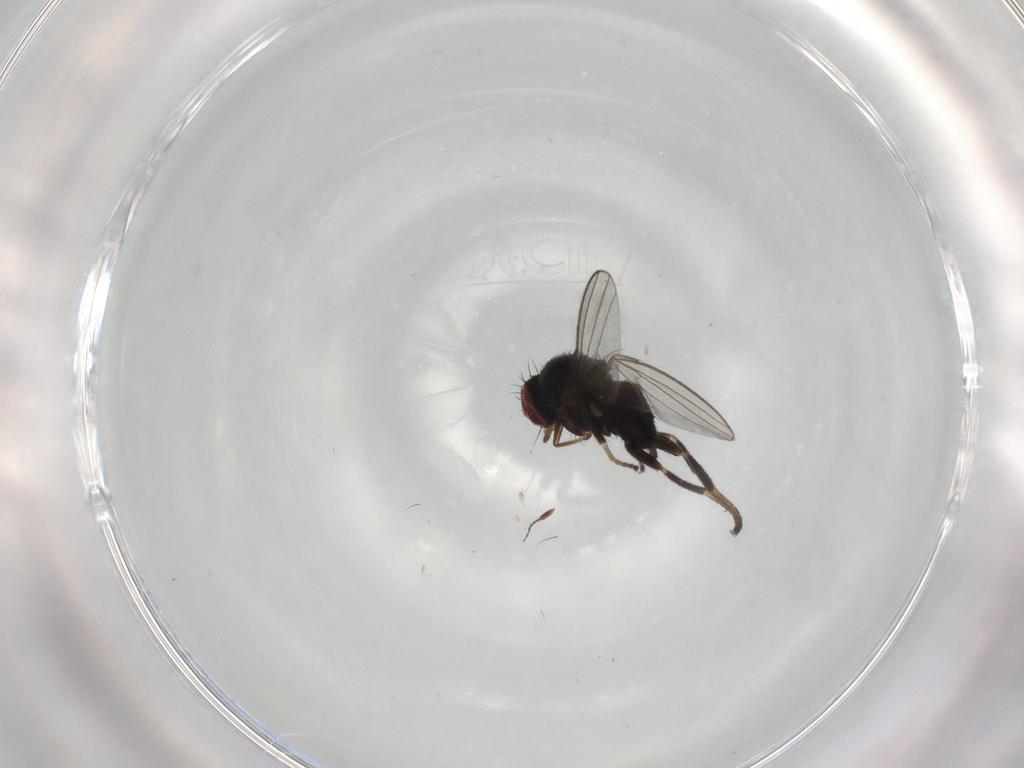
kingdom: Animalia
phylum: Arthropoda
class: Insecta
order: Diptera
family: Milichiidae
